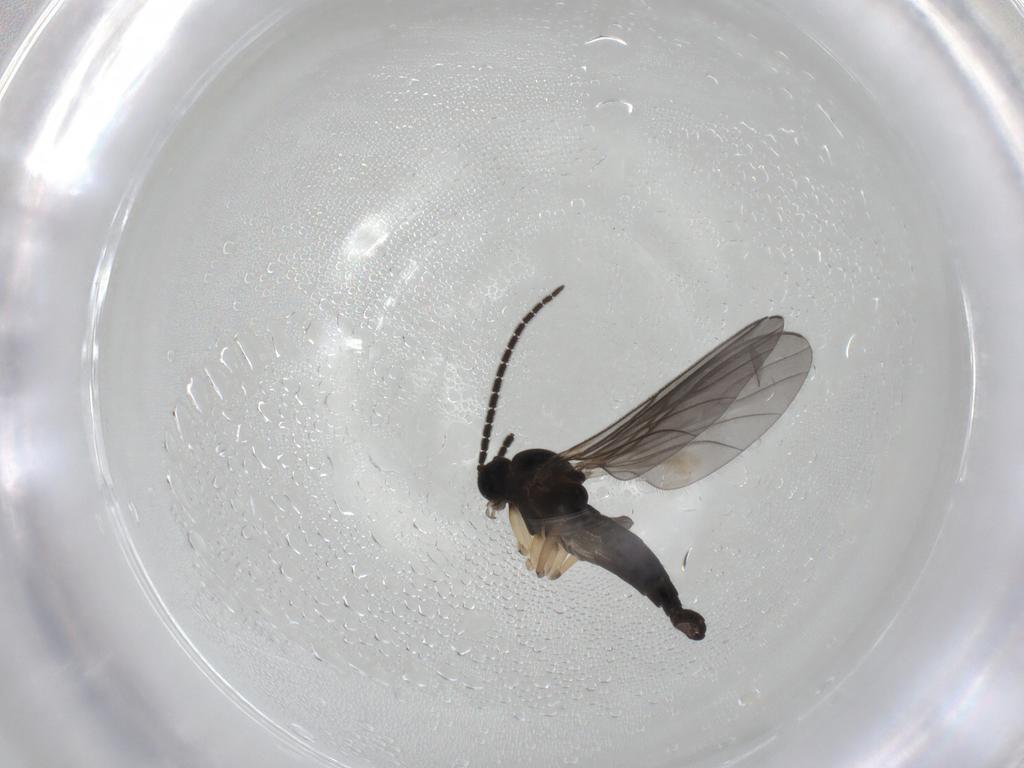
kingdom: Animalia
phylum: Arthropoda
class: Insecta
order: Diptera
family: Sciaridae
